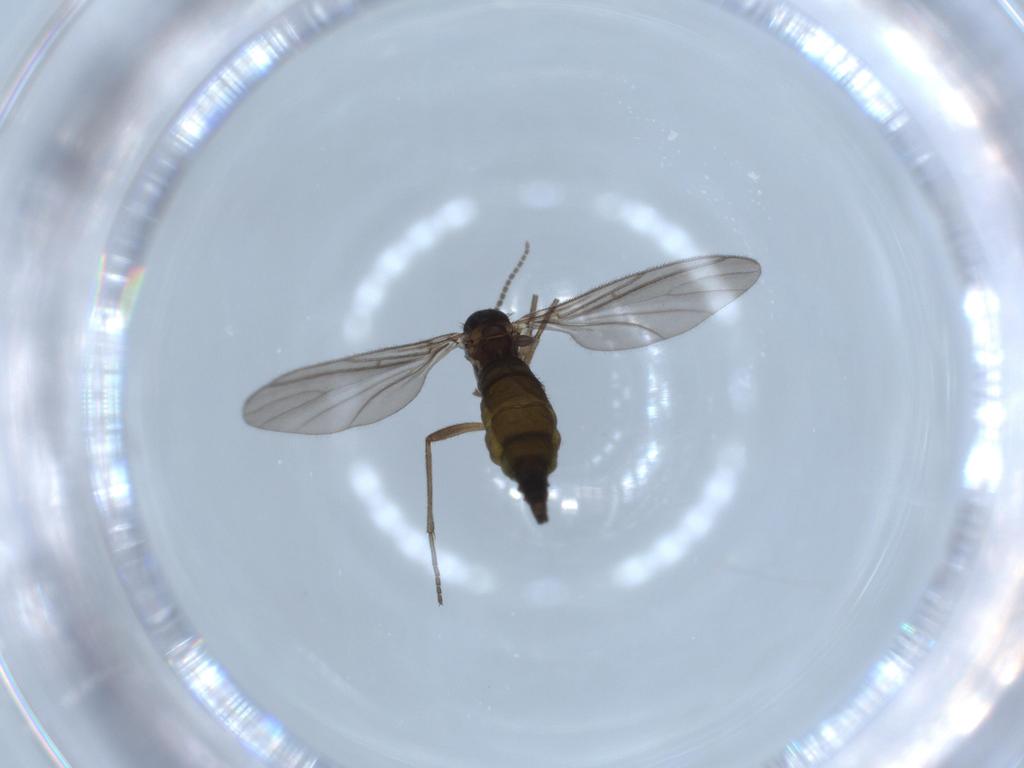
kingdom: Animalia
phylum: Arthropoda
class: Insecta
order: Diptera
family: Sciaridae
